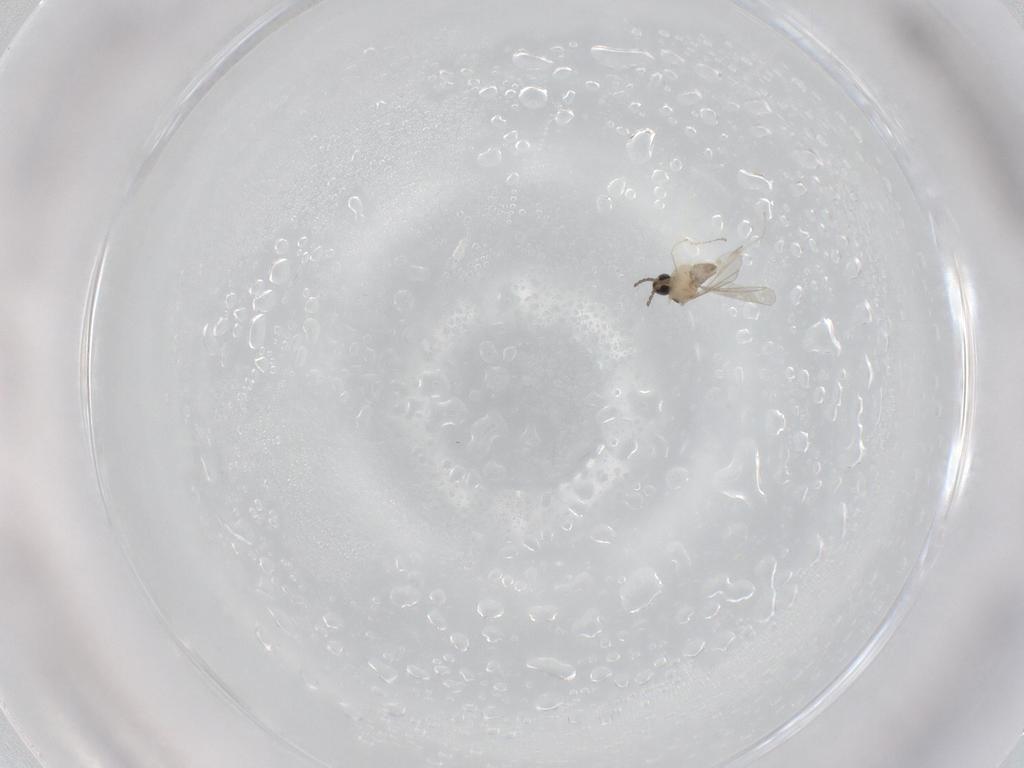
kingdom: Animalia
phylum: Arthropoda
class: Insecta
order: Diptera
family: Cecidomyiidae
